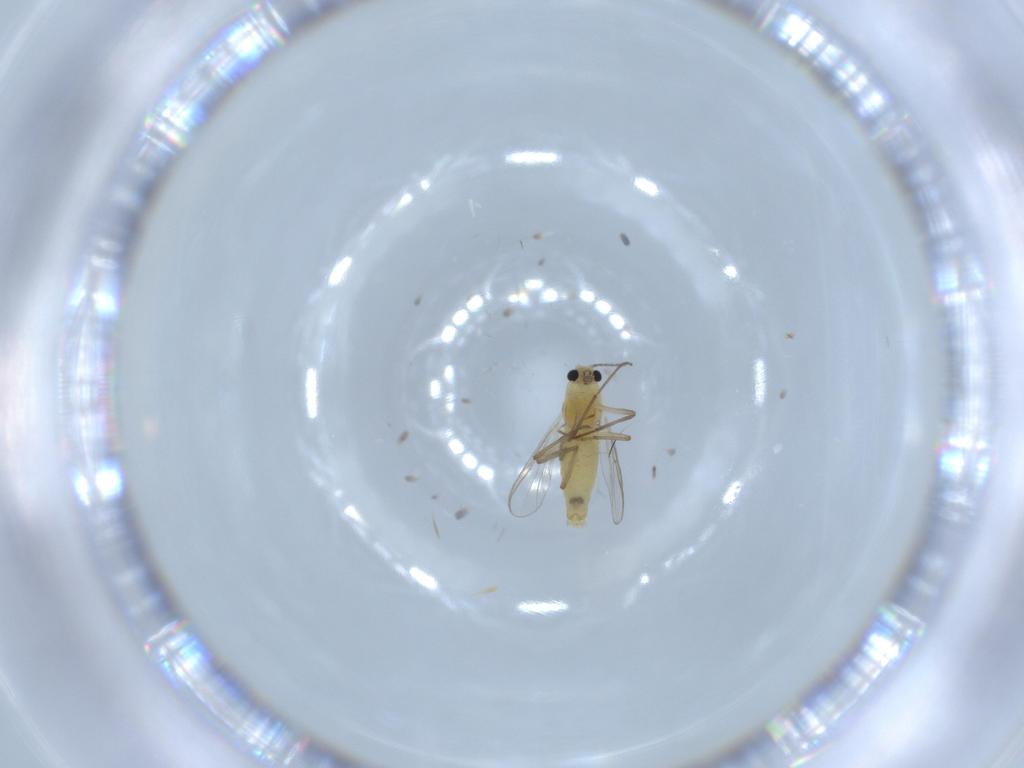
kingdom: Animalia
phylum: Arthropoda
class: Insecta
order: Diptera
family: Chironomidae
